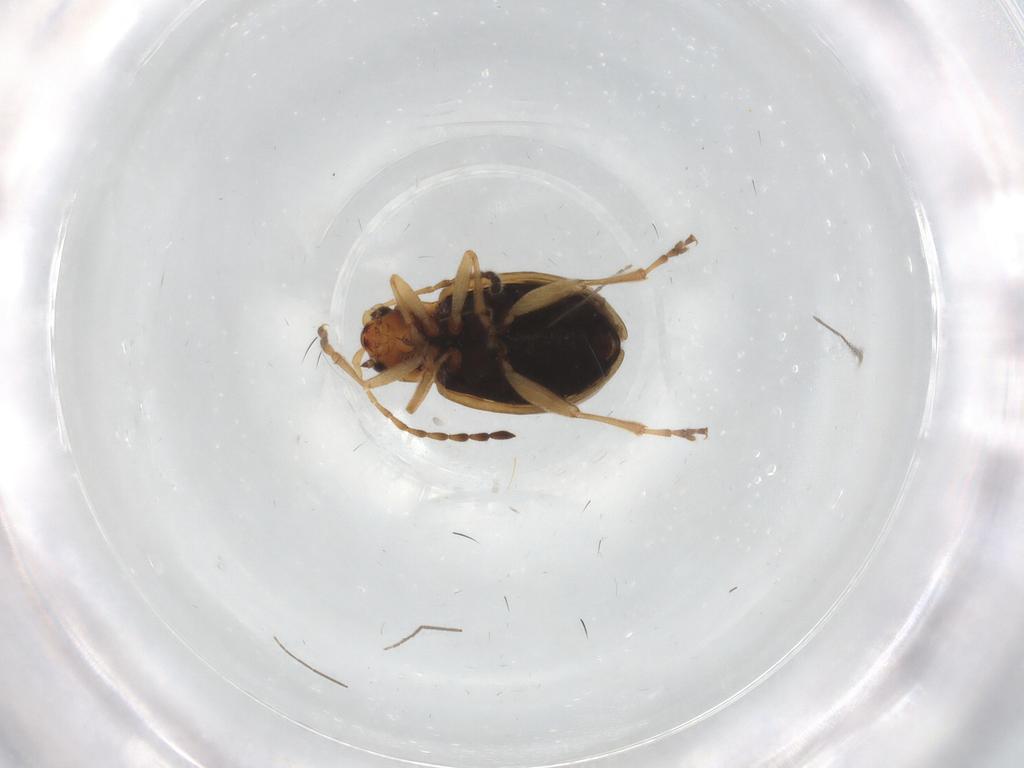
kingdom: Animalia
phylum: Arthropoda
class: Insecta
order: Coleoptera
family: Chrysomelidae
